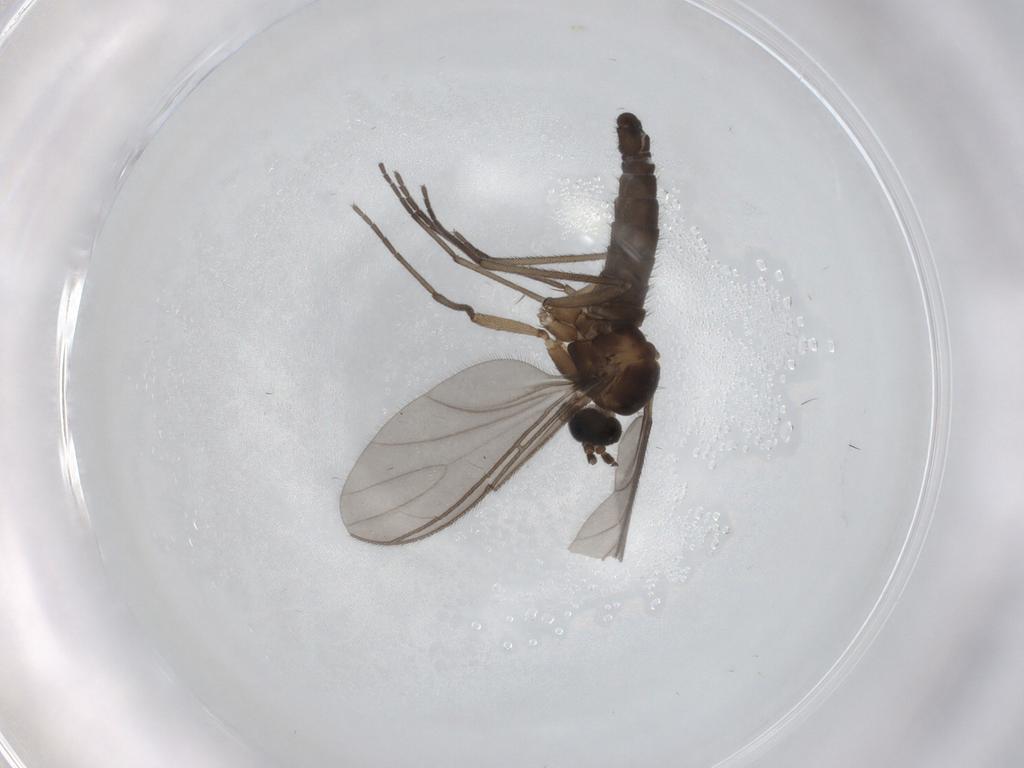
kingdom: Animalia
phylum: Arthropoda
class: Insecta
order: Diptera
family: Sciaridae
